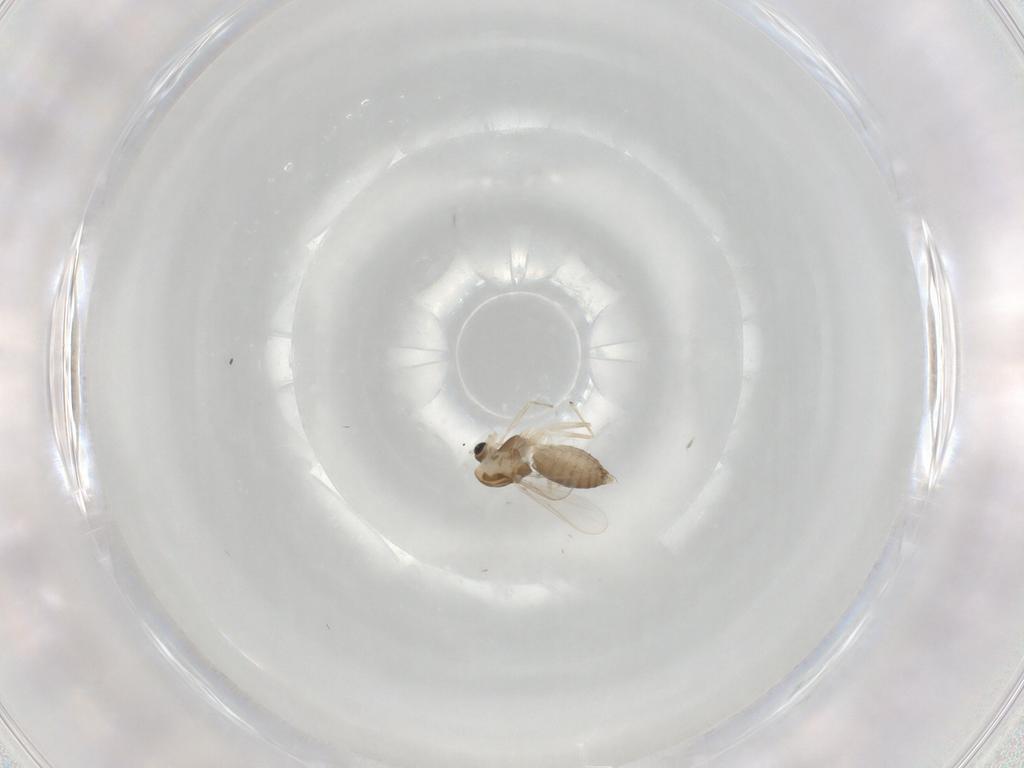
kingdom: Animalia
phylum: Arthropoda
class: Insecta
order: Diptera
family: Chironomidae
